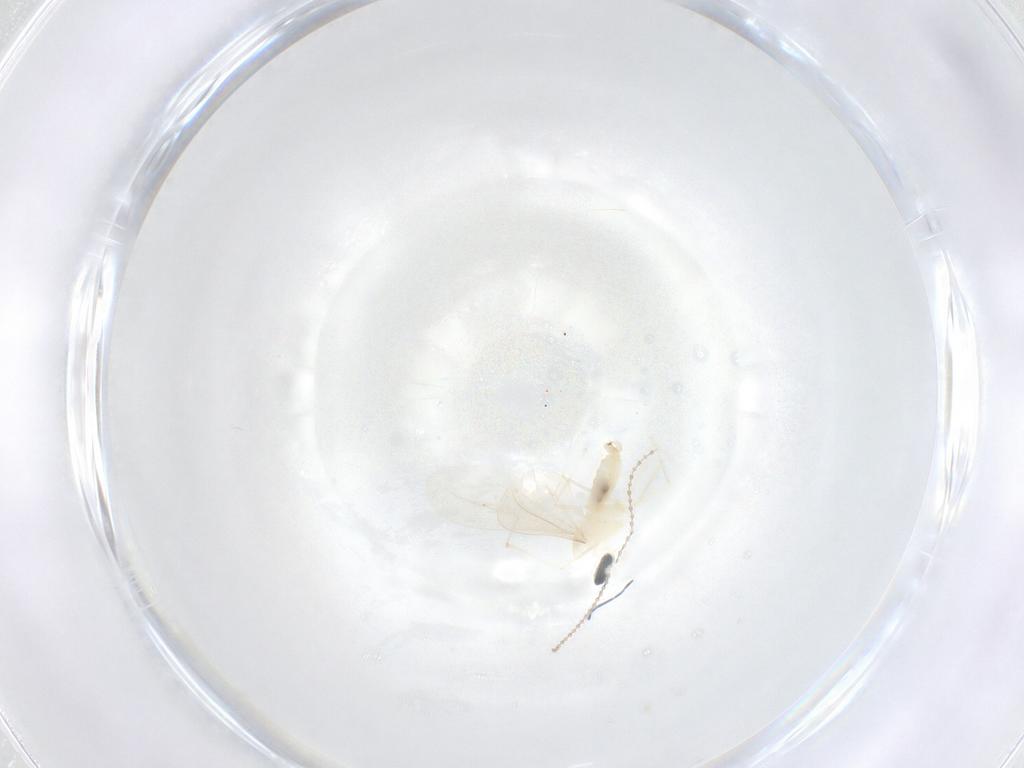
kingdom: Animalia
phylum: Arthropoda
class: Insecta
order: Diptera
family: Cecidomyiidae
